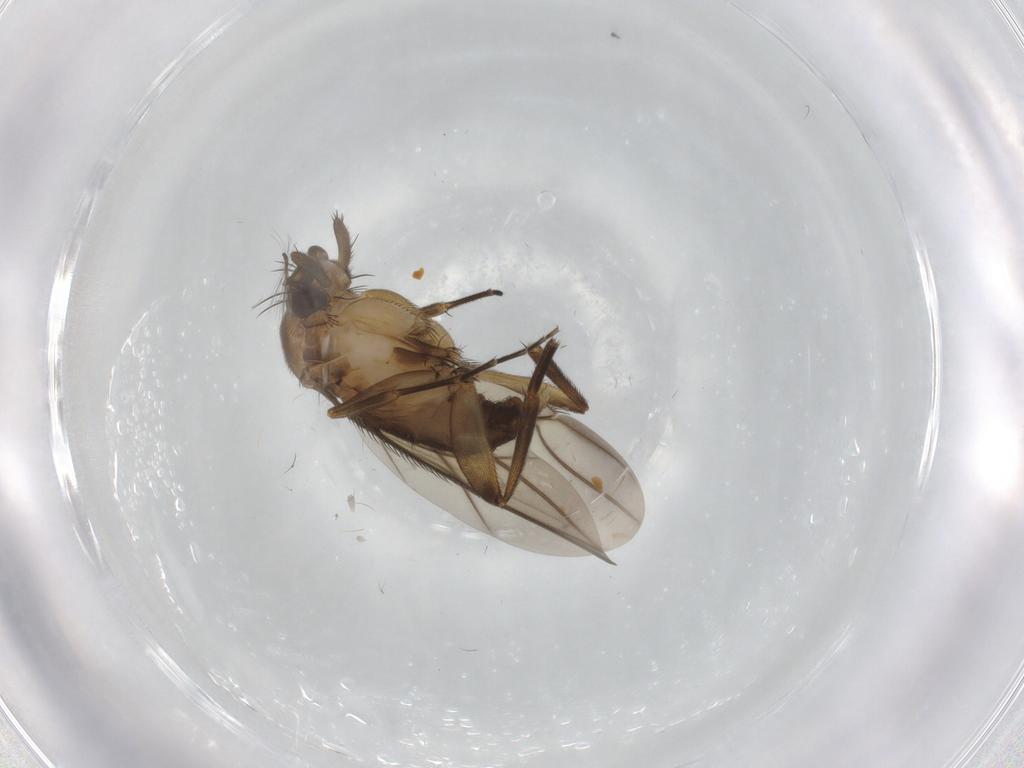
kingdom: Animalia
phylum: Arthropoda
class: Insecta
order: Diptera
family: Phoridae
